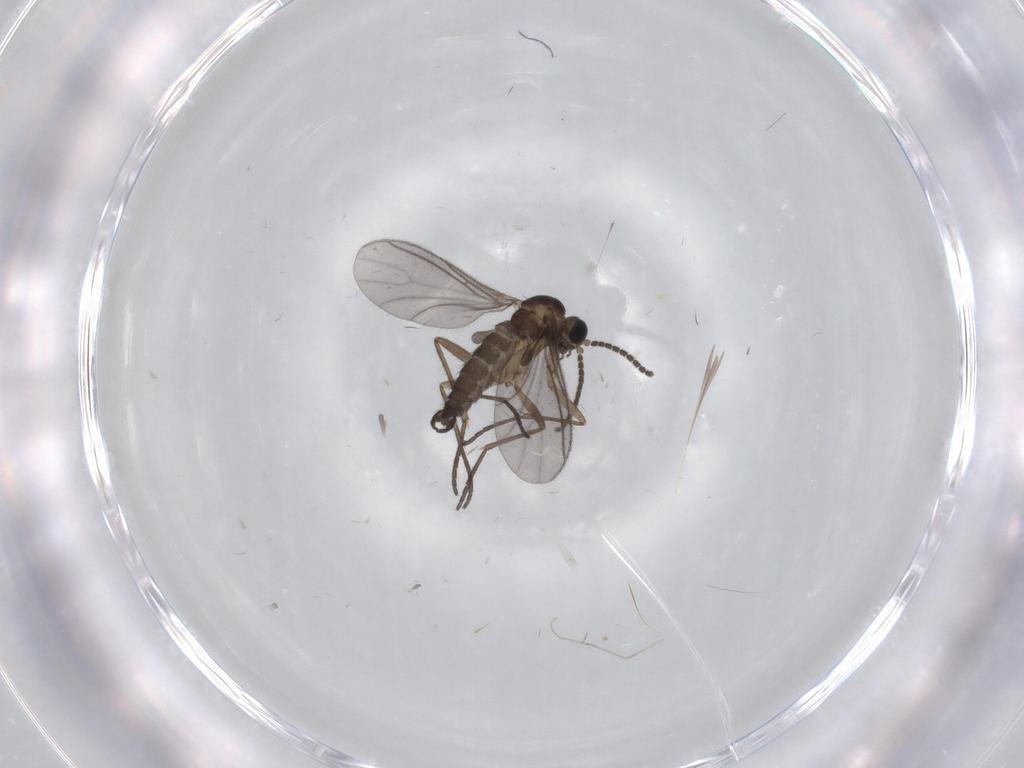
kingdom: Animalia
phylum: Arthropoda
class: Insecta
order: Diptera
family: Sciaridae
